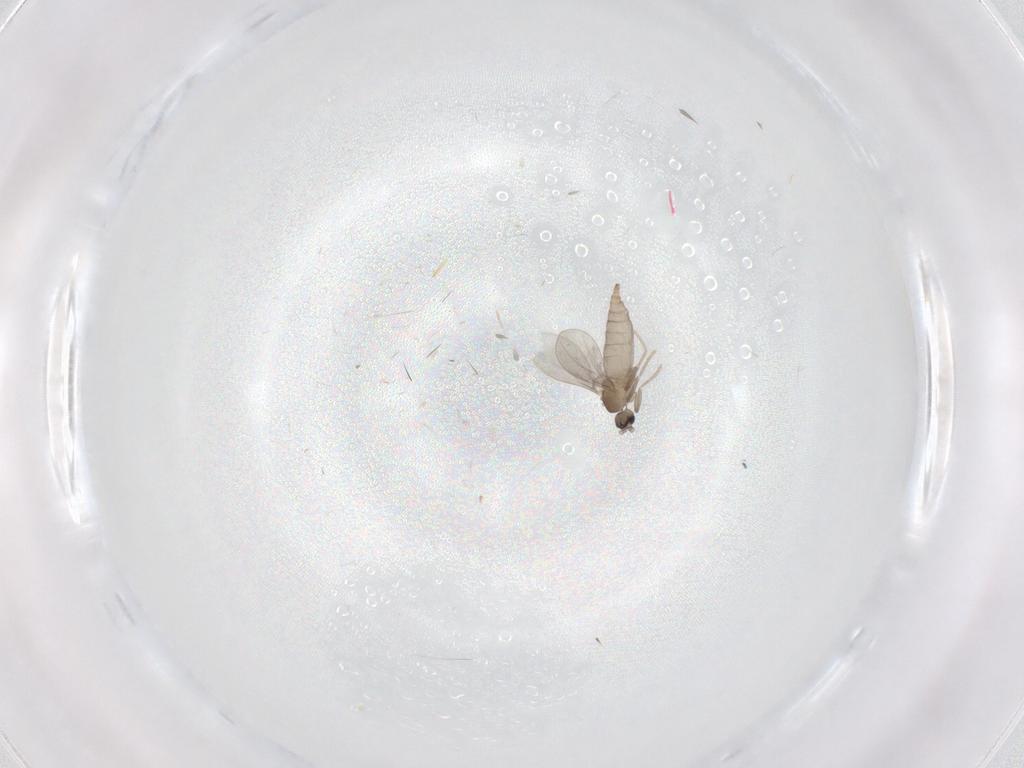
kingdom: Animalia
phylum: Arthropoda
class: Insecta
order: Diptera
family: Cecidomyiidae
